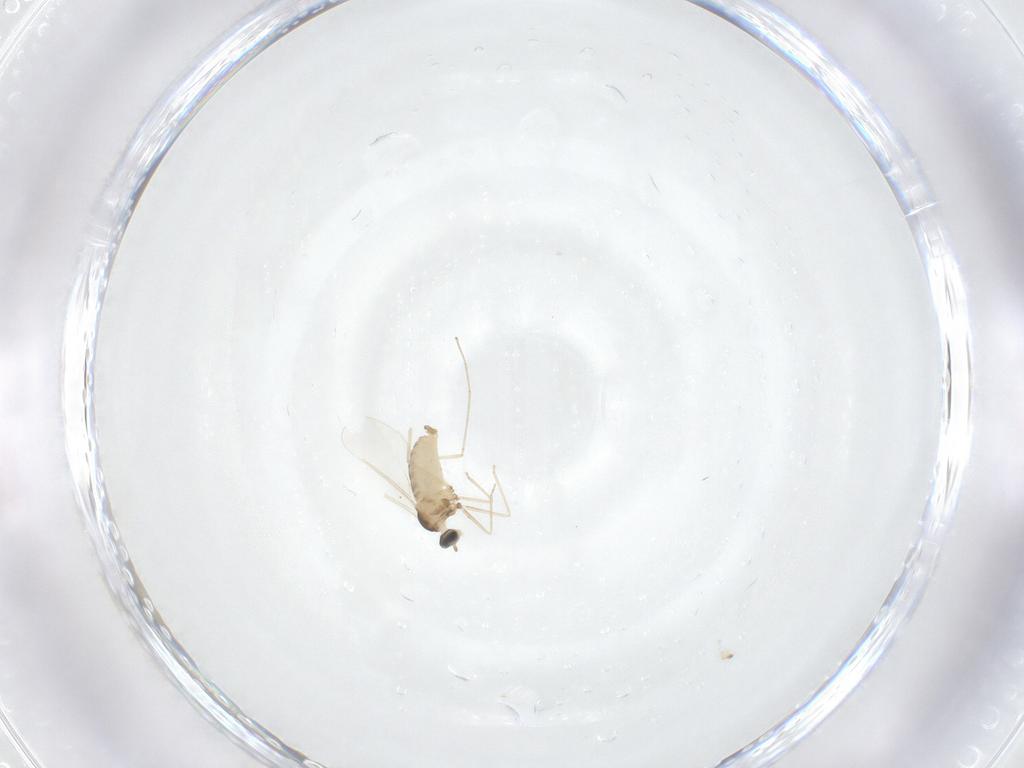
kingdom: Animalia
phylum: Arthropoda
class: Insecta
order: Diptera
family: Cecidomyiidae
